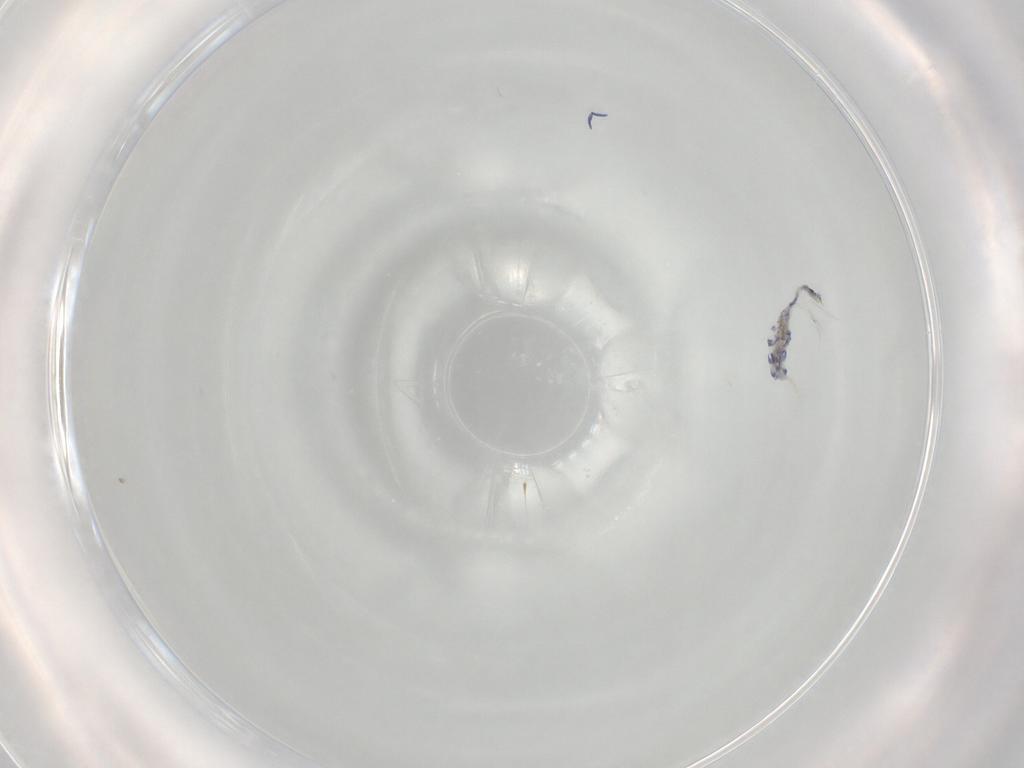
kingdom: Animalia
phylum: Arthropoda
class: Collembola
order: Entomobryomorpha
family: Entomobryidae
